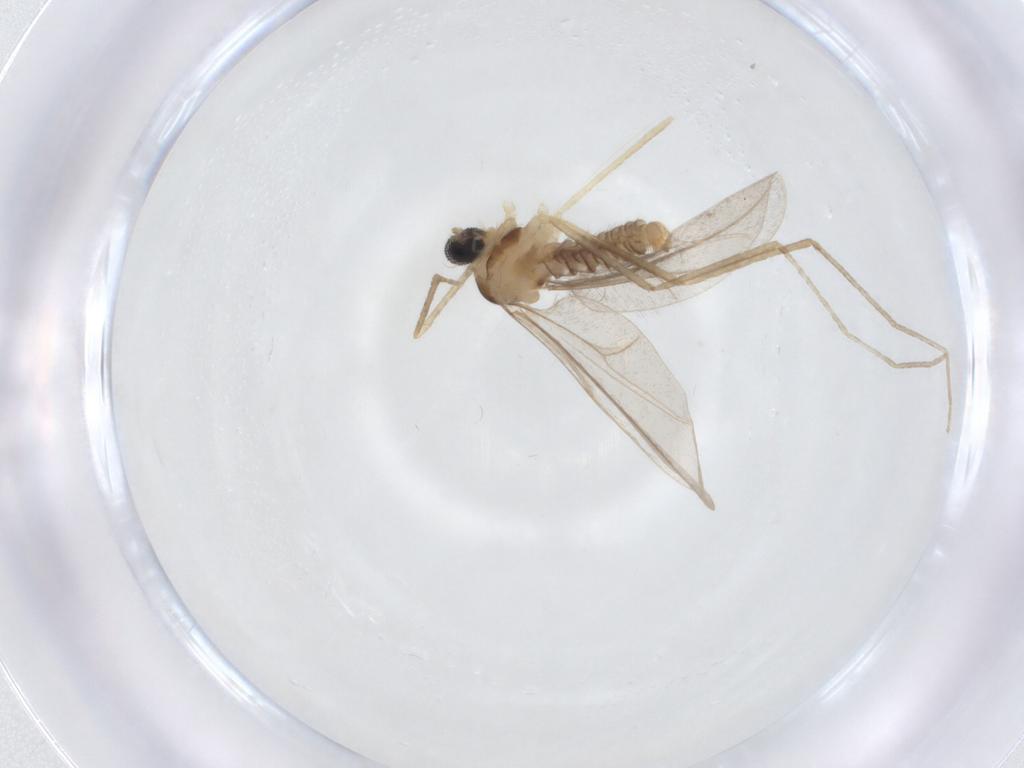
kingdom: Animalia
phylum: Arthropoda
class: Insecta
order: Diptera
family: Cecidomyiidae
